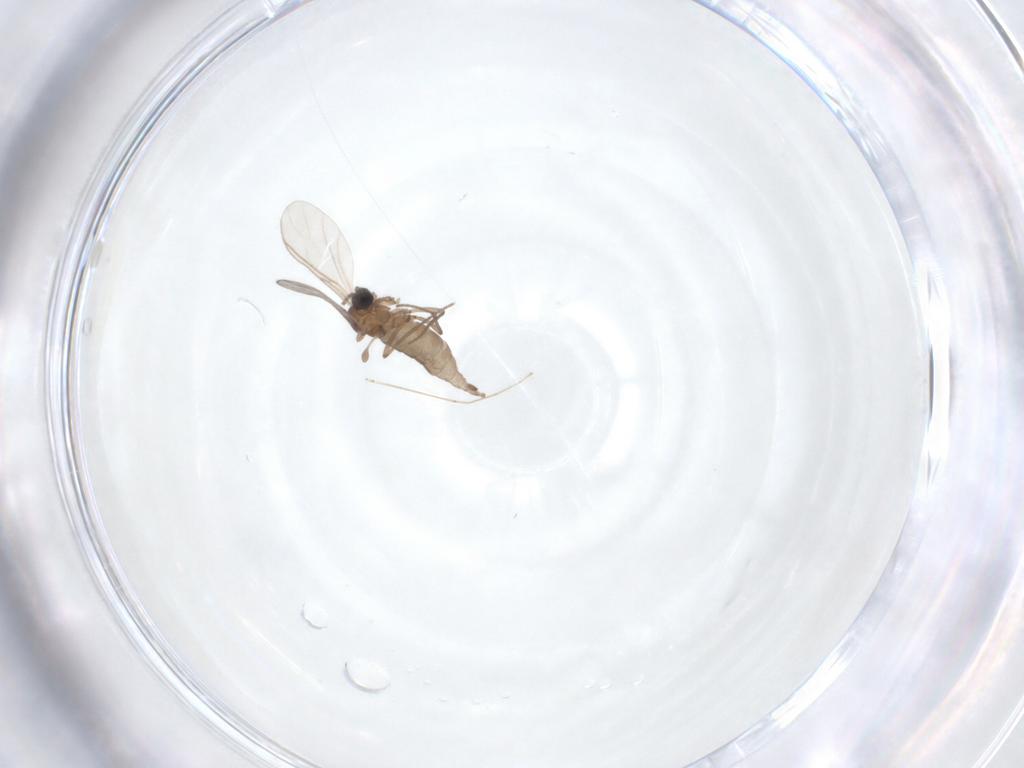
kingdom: Animalia
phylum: Arthropoda
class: Insecta
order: Diptera
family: Sciaridae
